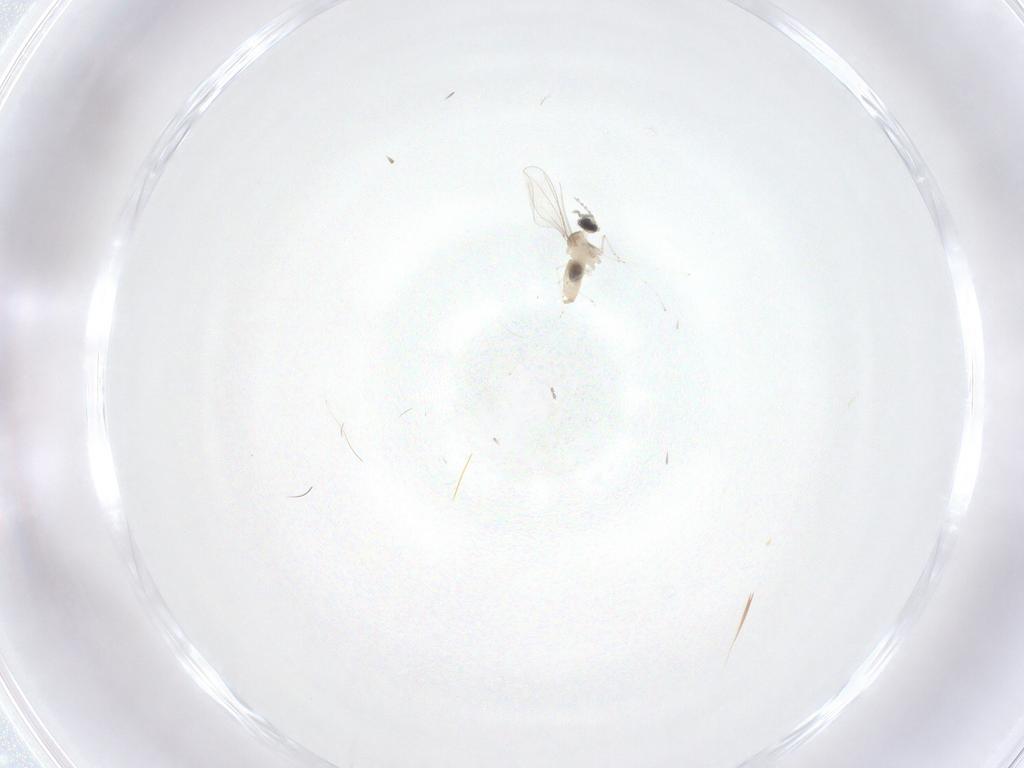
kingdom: Animalia
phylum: Arthropoda
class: Insecta
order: Diptera
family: Cecidomyiidae
